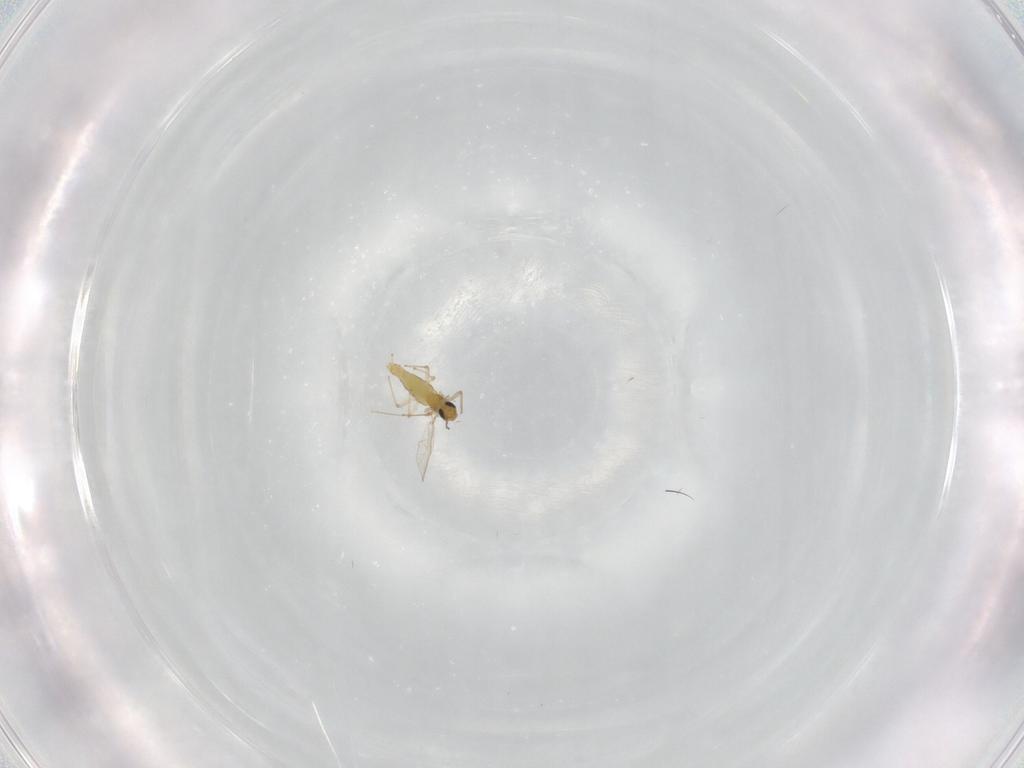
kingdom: Animalia
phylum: Arthropoda
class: Insecta
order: Diptera
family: Chironomidae
